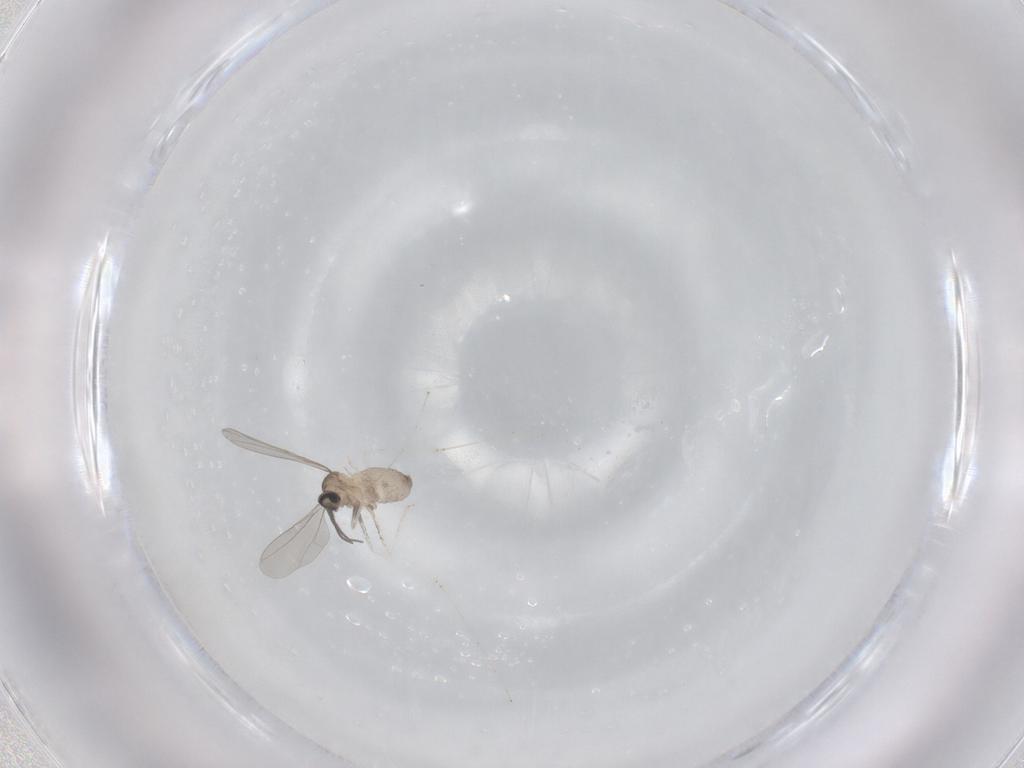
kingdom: Animalia
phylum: Arthropoda
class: Insecta
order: Diptera
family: Cecidomyiidae
